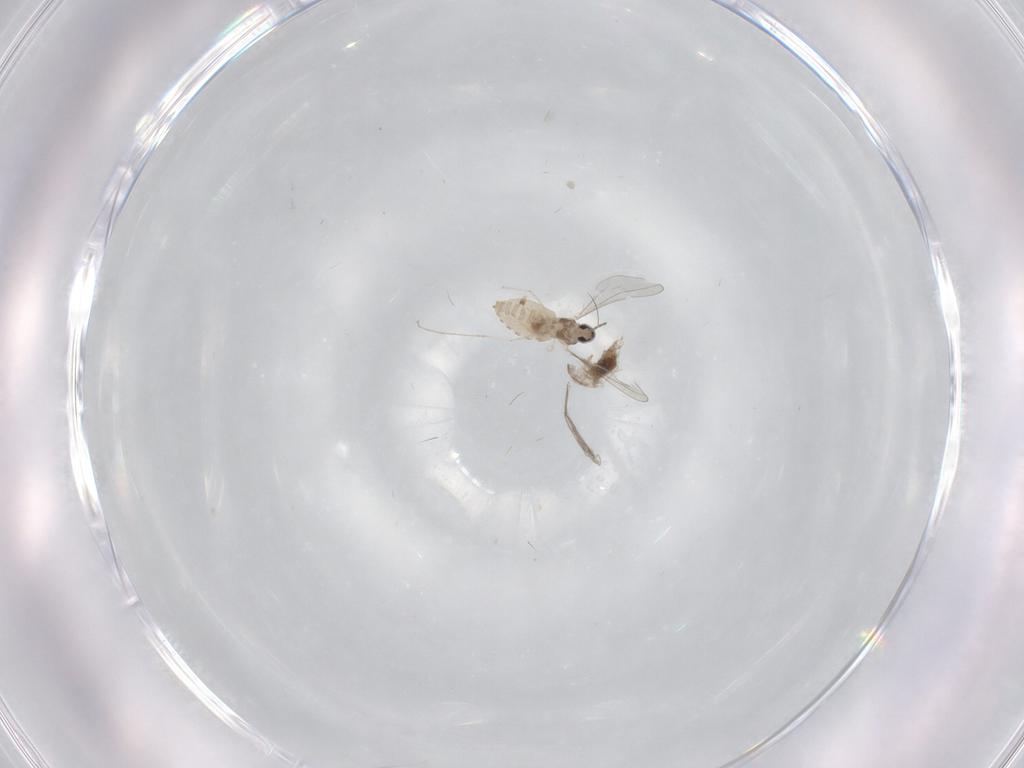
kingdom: Animalia
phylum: Arthropoda
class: Insecta
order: Diptera
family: Cecidomyiidae
